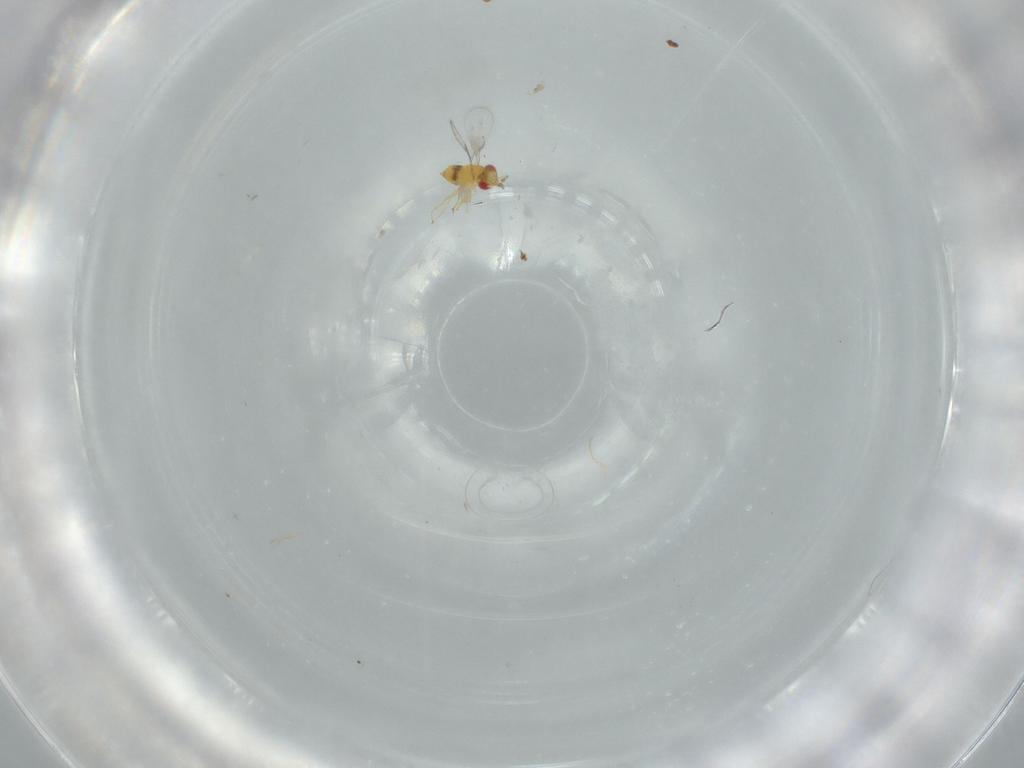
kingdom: Animalia
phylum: Arthropoda
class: Insecta
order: Hymenoptera
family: Trichogrammatidae
